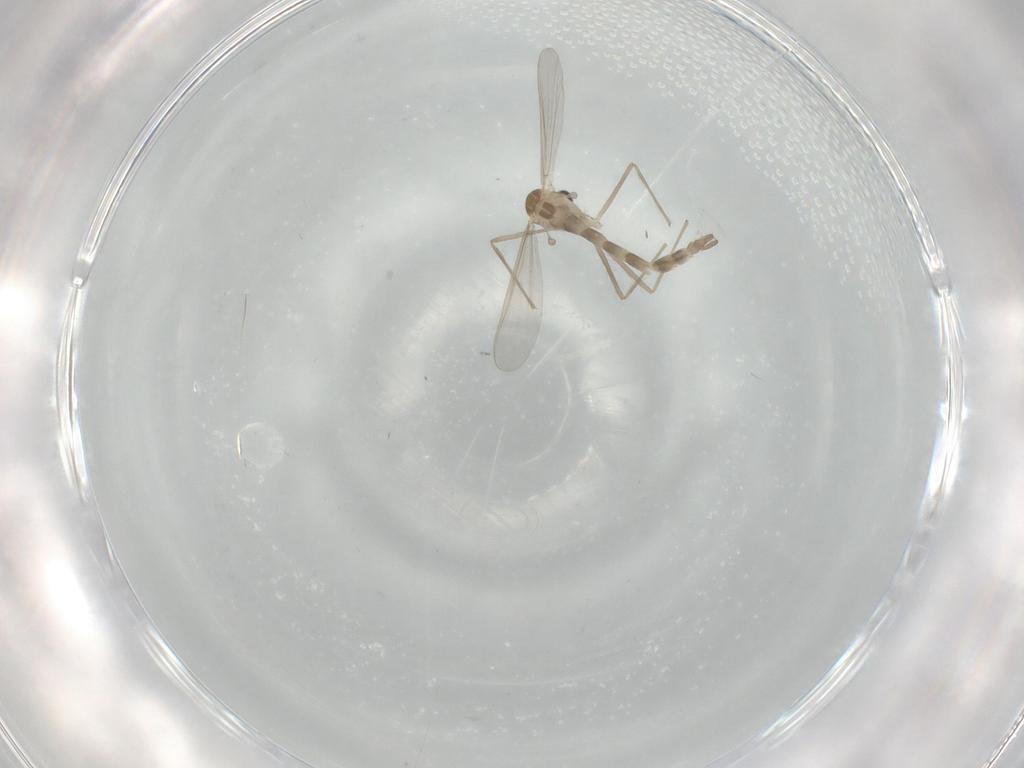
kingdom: Animalia
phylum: Arthropoda
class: Insecta
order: Diptera
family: Chironomidae
